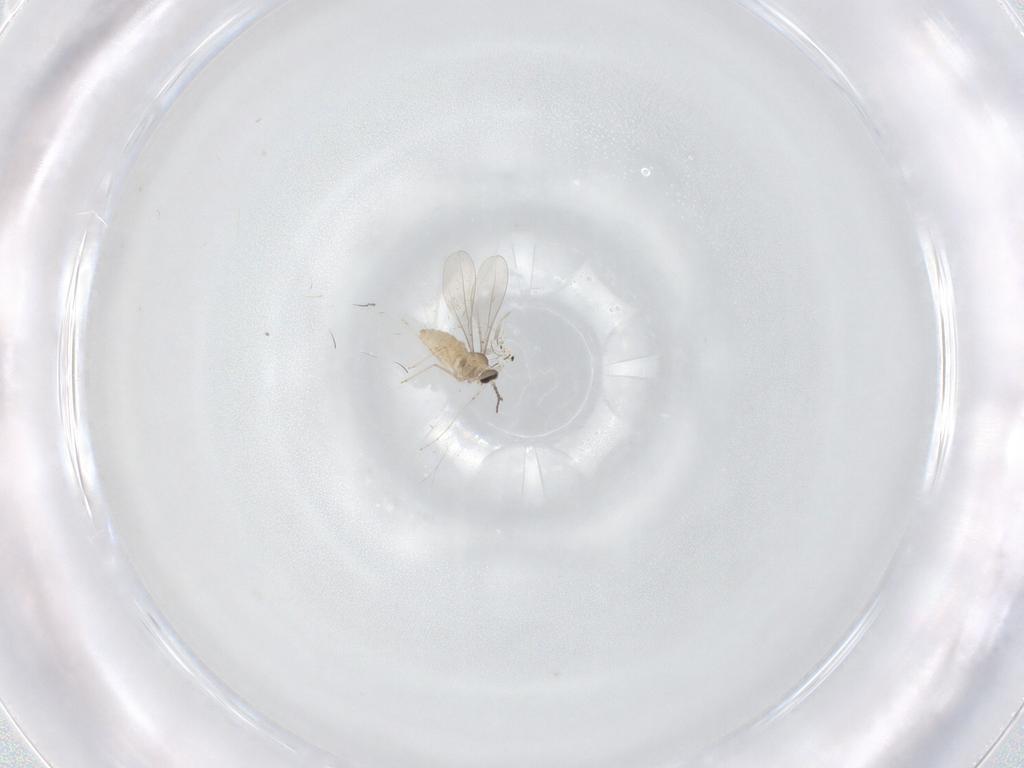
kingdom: Animalia
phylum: Arthropoda
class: Insecta
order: Diptera
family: Cecidomyiidae
